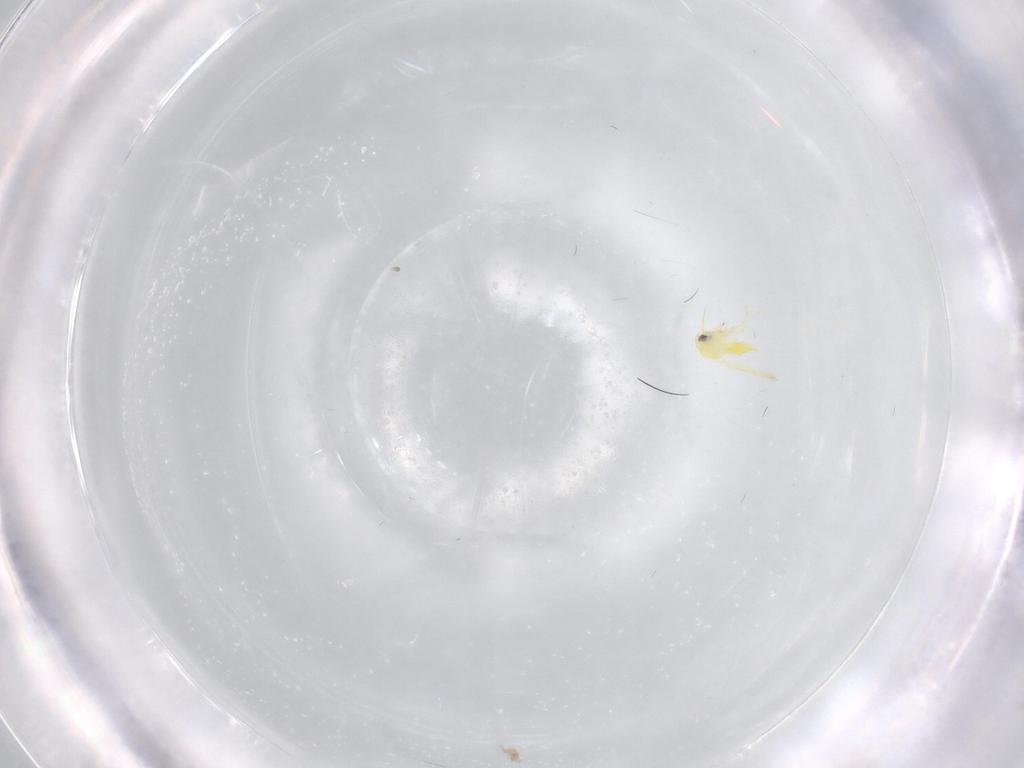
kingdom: Animalia
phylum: Arthropoda
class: Insecta
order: Hemiptera
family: Aleyrodidae
